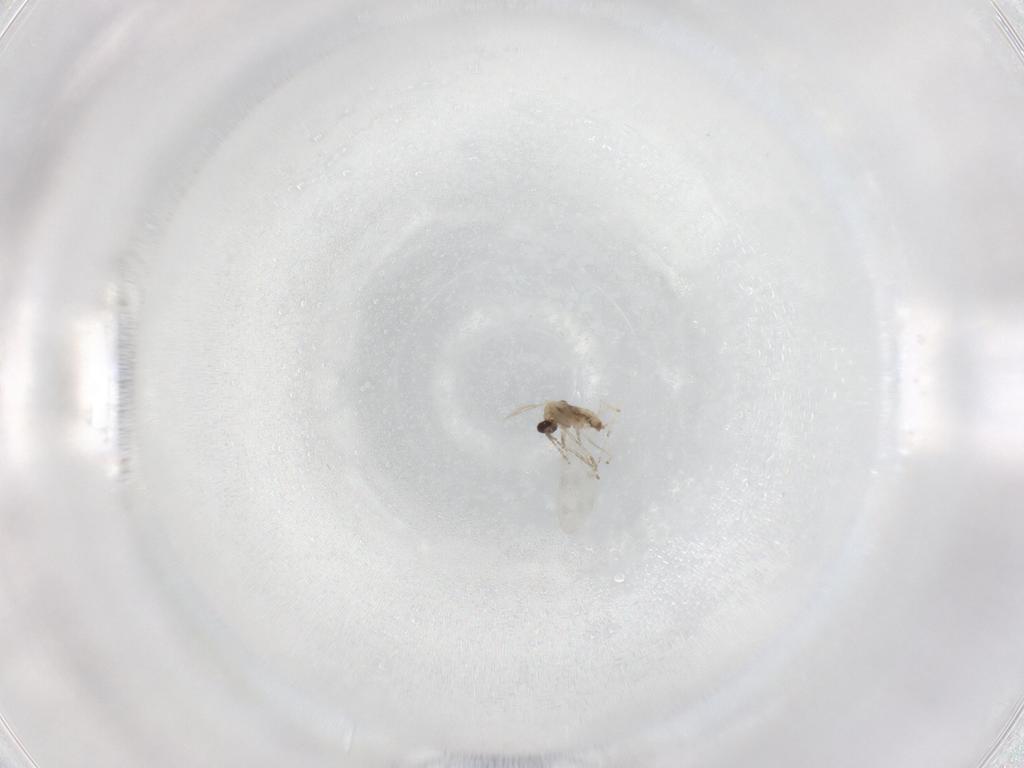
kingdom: Animalia
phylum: Arthropoda
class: Insecta
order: Diptera
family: Cecidomyiidae
